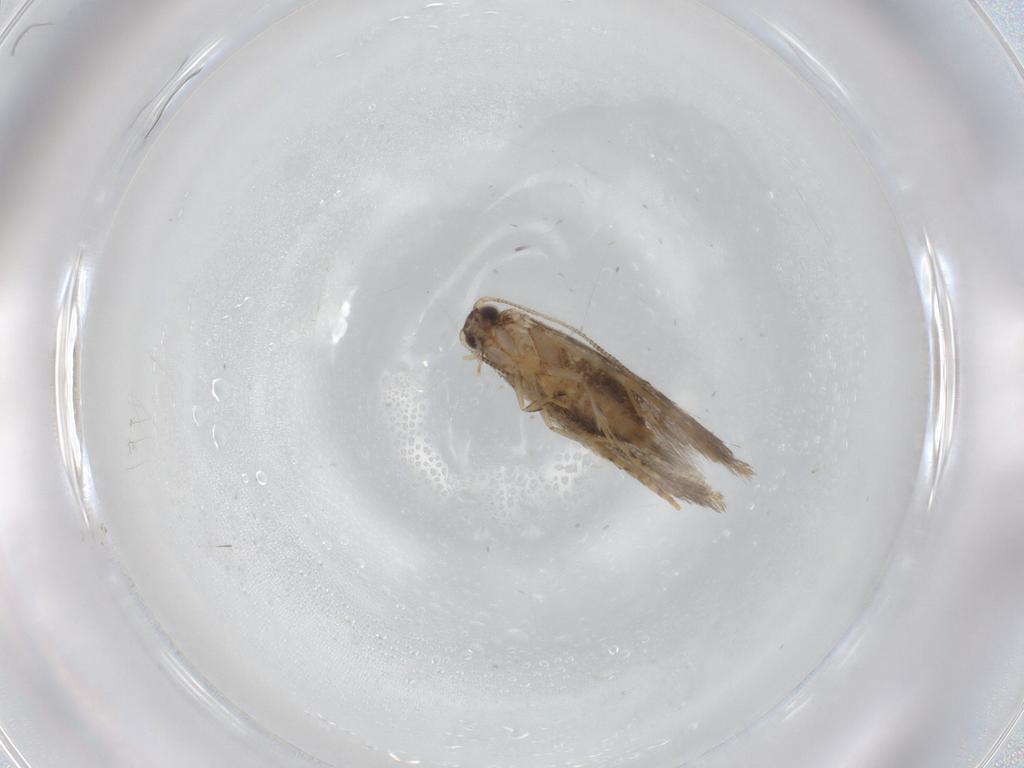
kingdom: Animalia
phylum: Arthropoda
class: Insecta
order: Lepidoptera
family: Tineidae
